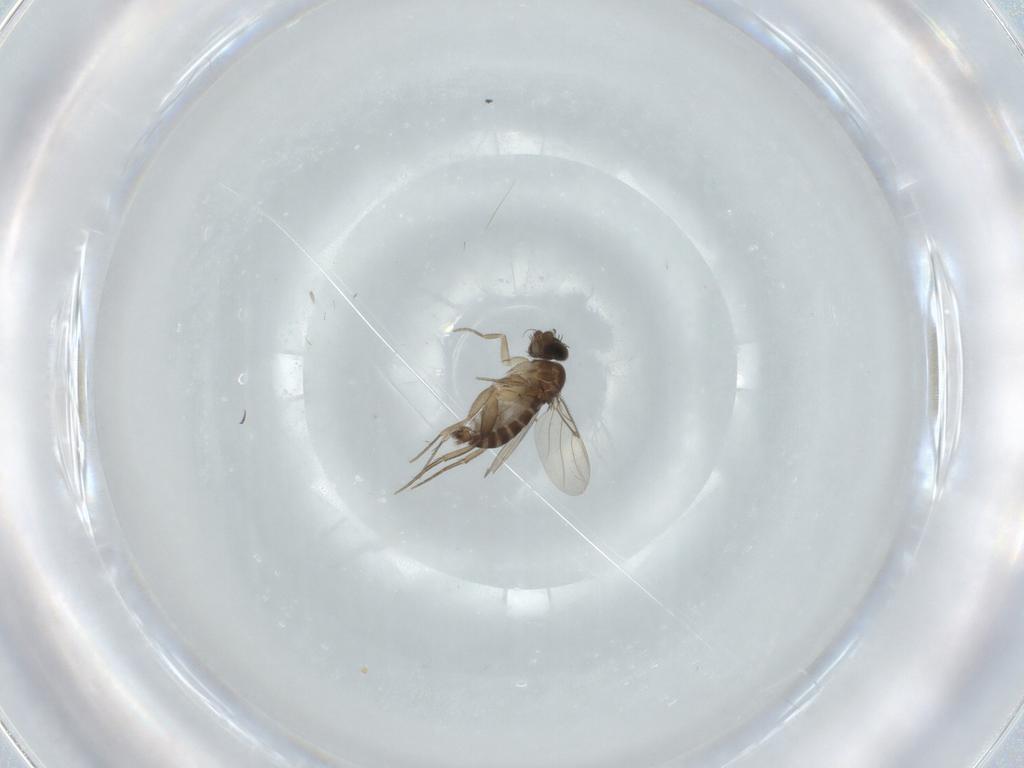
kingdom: Animalia
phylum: Arthropoda
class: Insecta
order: Diptera
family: Phoridae
